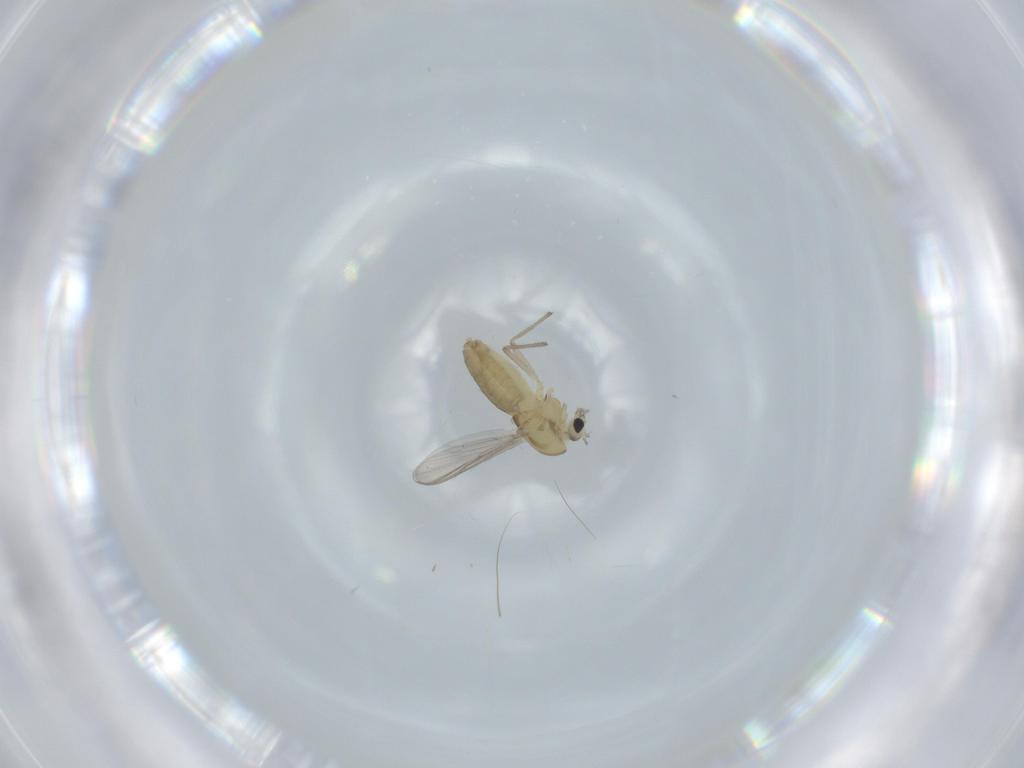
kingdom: Animalia
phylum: Arthropoda
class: Insecta
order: Diptera
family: Chironomidae
